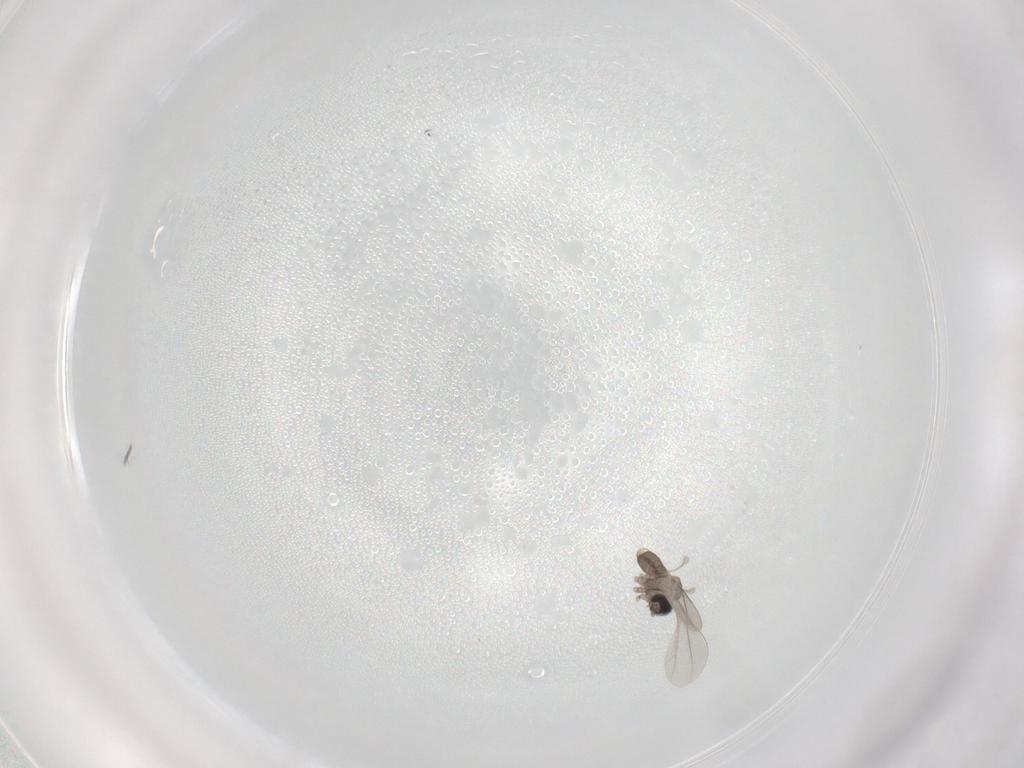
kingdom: Animalia
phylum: Arthropoda
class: Insecta
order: Diptera
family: Cecidomyiidae
